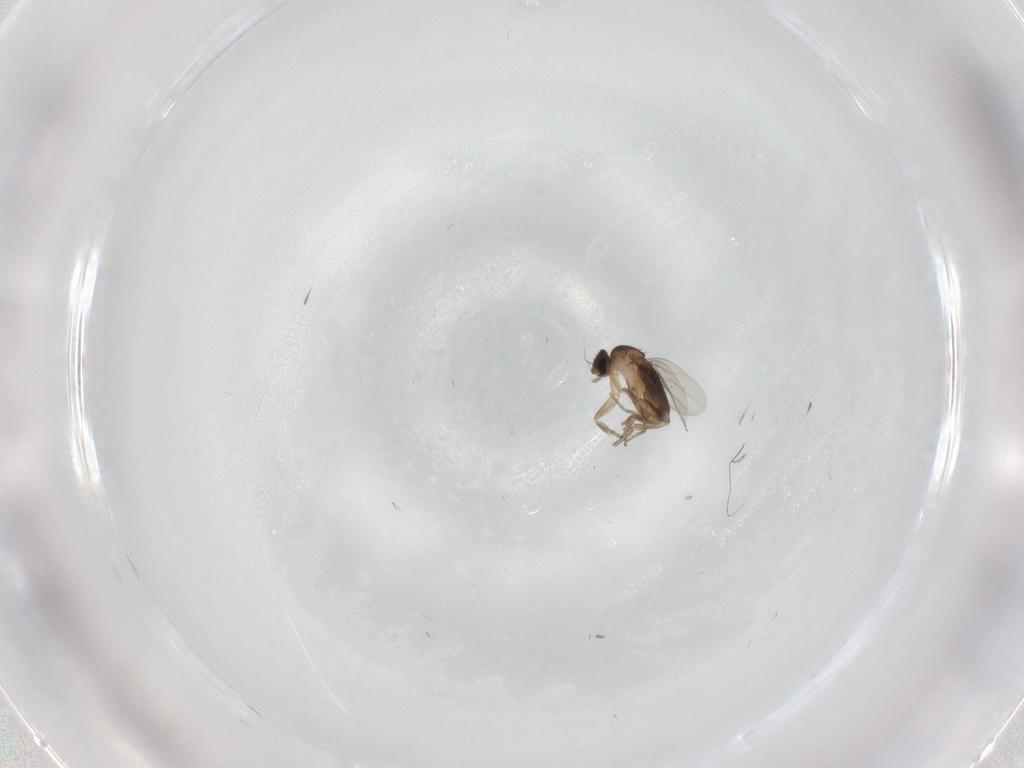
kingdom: Animalia
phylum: Arthropoda
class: Insecta
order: Diptera
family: Phoridae
